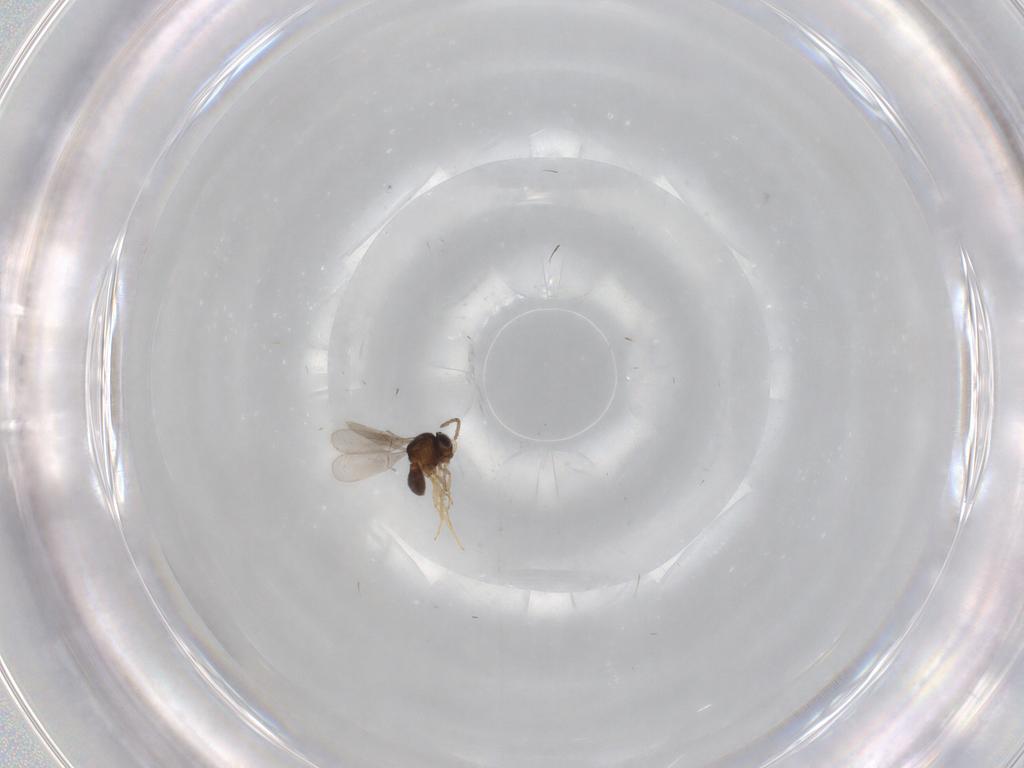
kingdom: Animalia
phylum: Arthropoda
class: Insecta
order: Hymenoptera
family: Scelionidae
